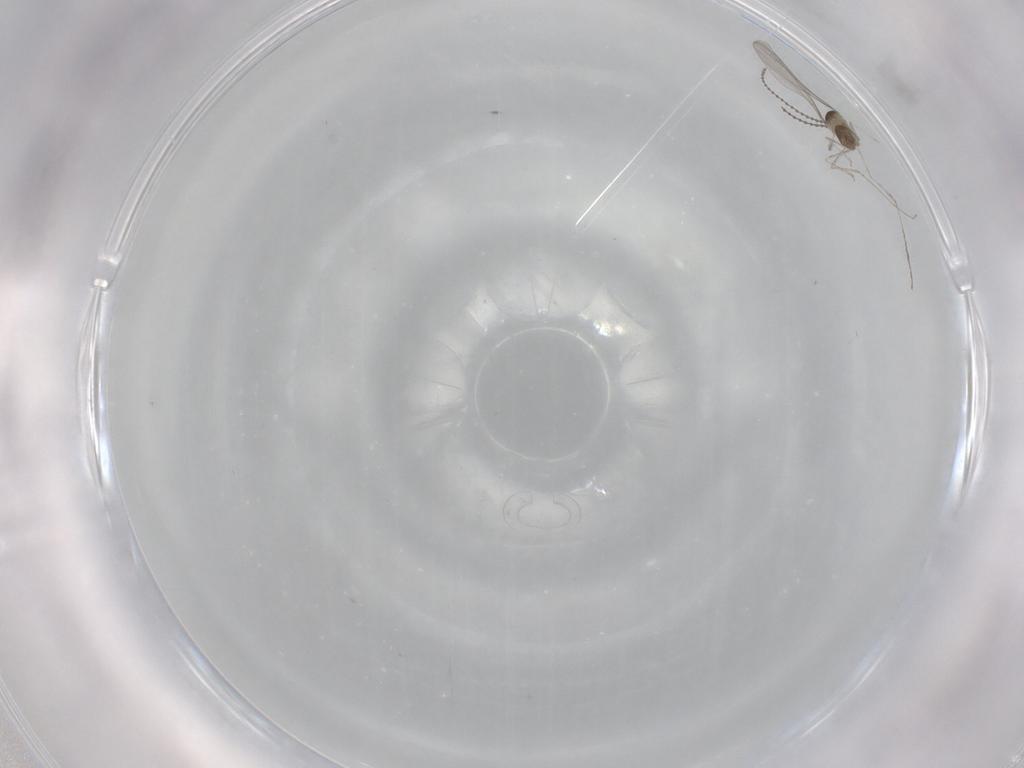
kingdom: Animalia
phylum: Arthropoda
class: Insecta
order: Diptera
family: Cecidomyiidae
